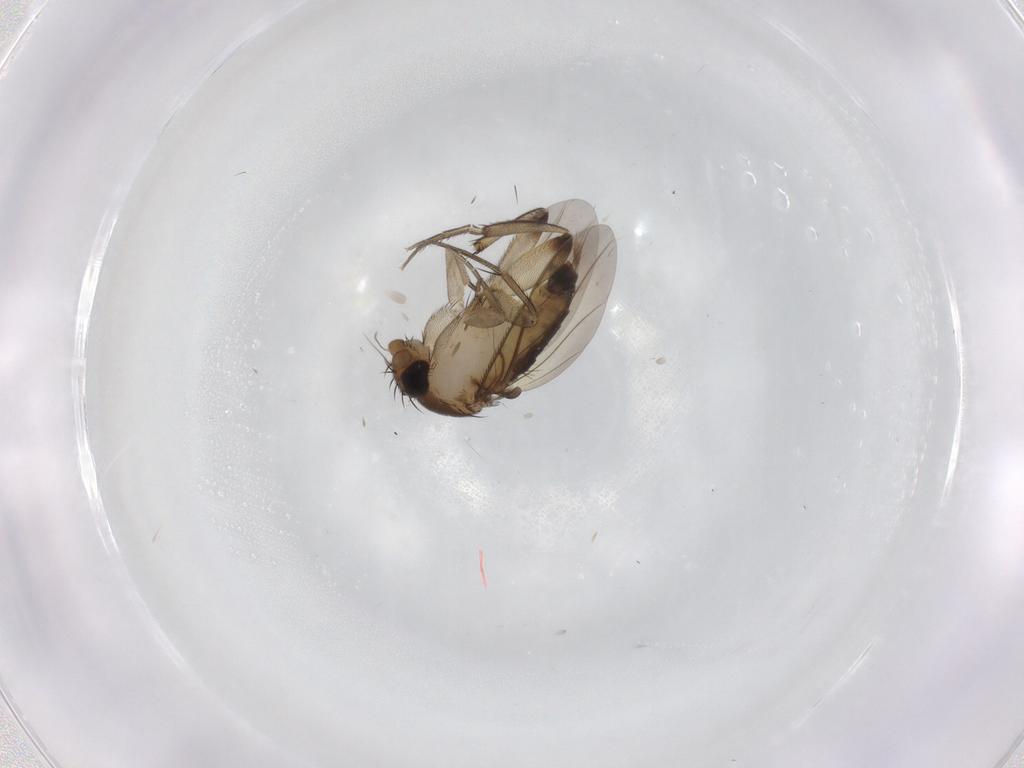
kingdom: Animalia
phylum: Arthropoda
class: Insecta
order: Diptera
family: Phoridae
